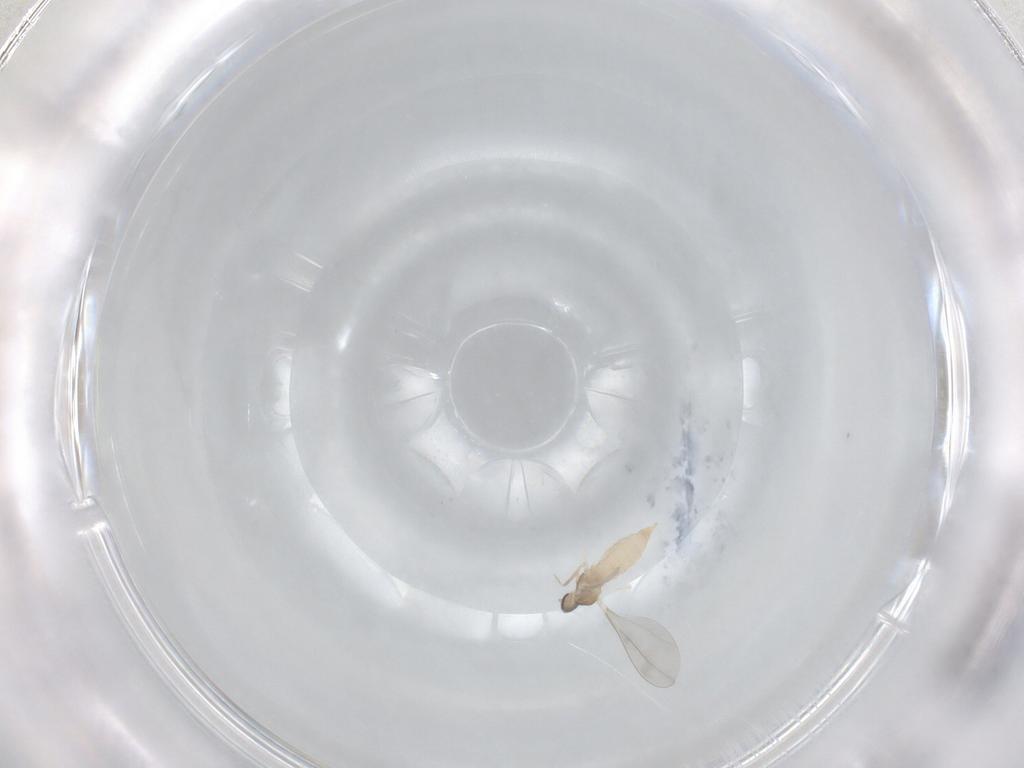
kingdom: Animalia
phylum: Arthropoda
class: Insecta
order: Diptera
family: Cecidomyiidae
